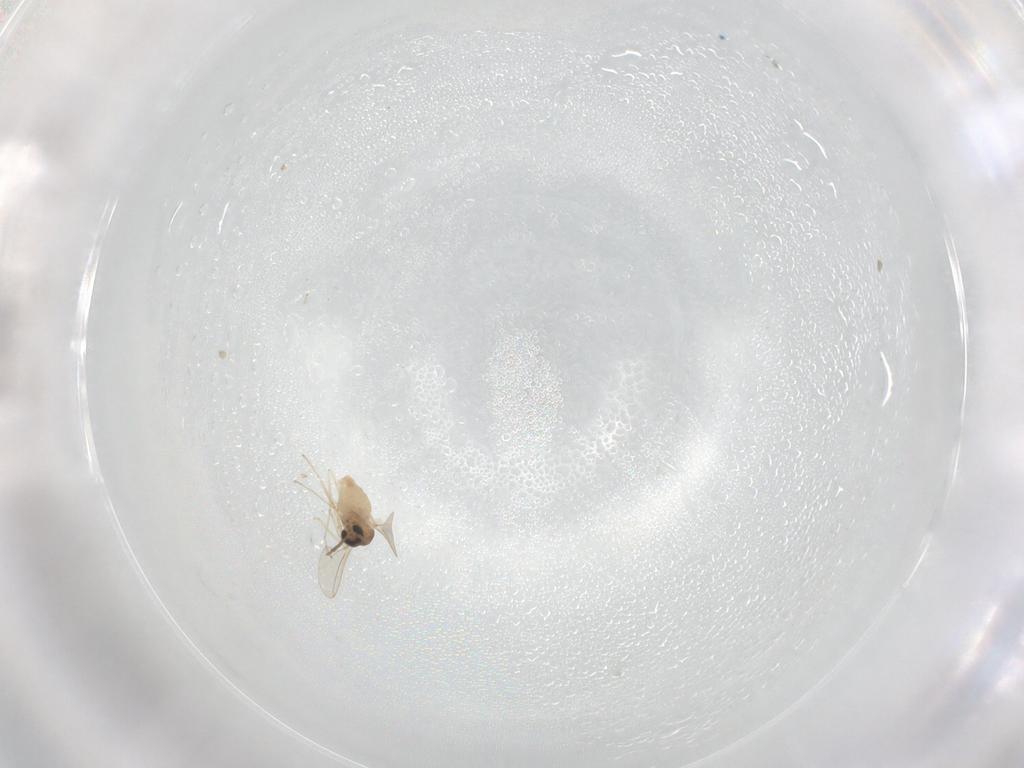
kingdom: Animalia
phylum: Arthropoda
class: Insecta
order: Diptera
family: Cecidomyiidae
